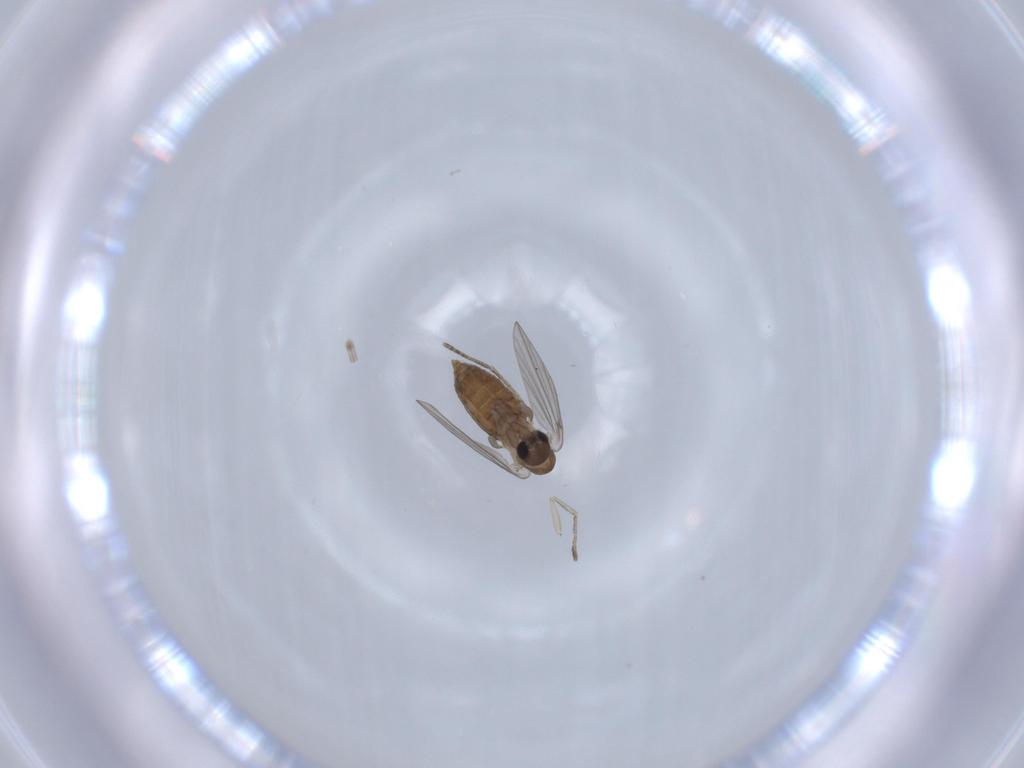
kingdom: Animalia
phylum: Arthropoda
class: Insecta
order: Diptera
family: Sciaridae
